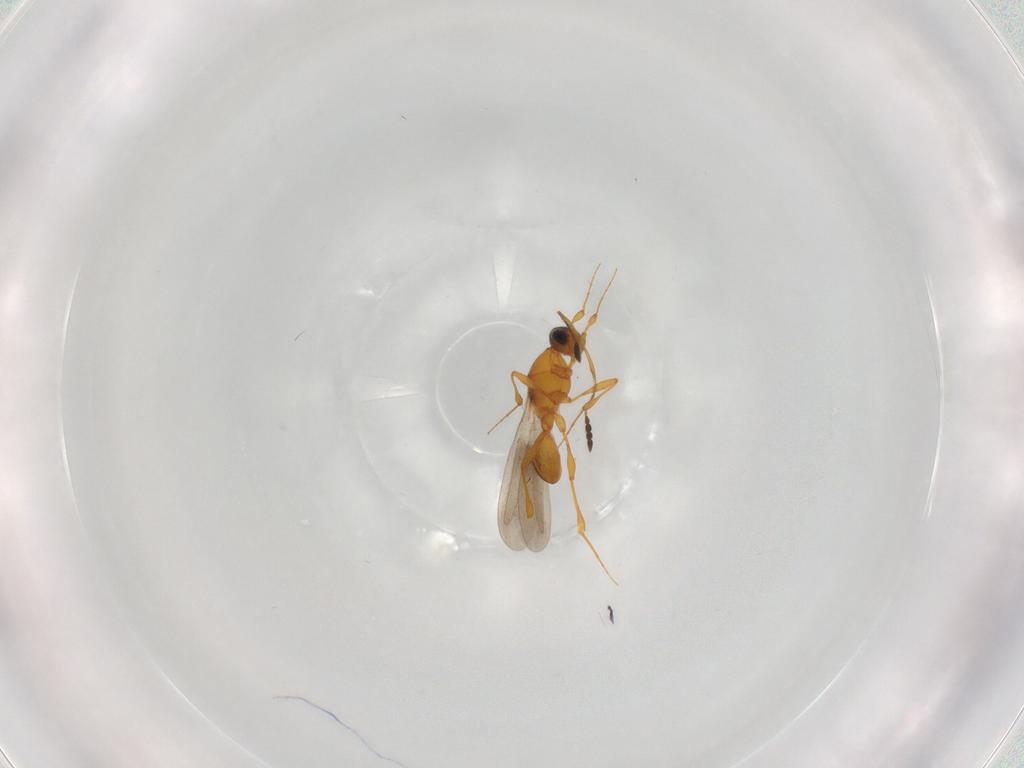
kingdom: Animalia
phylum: Arthropoda
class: Insecta
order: Hymenoptera
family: Platygastridae
